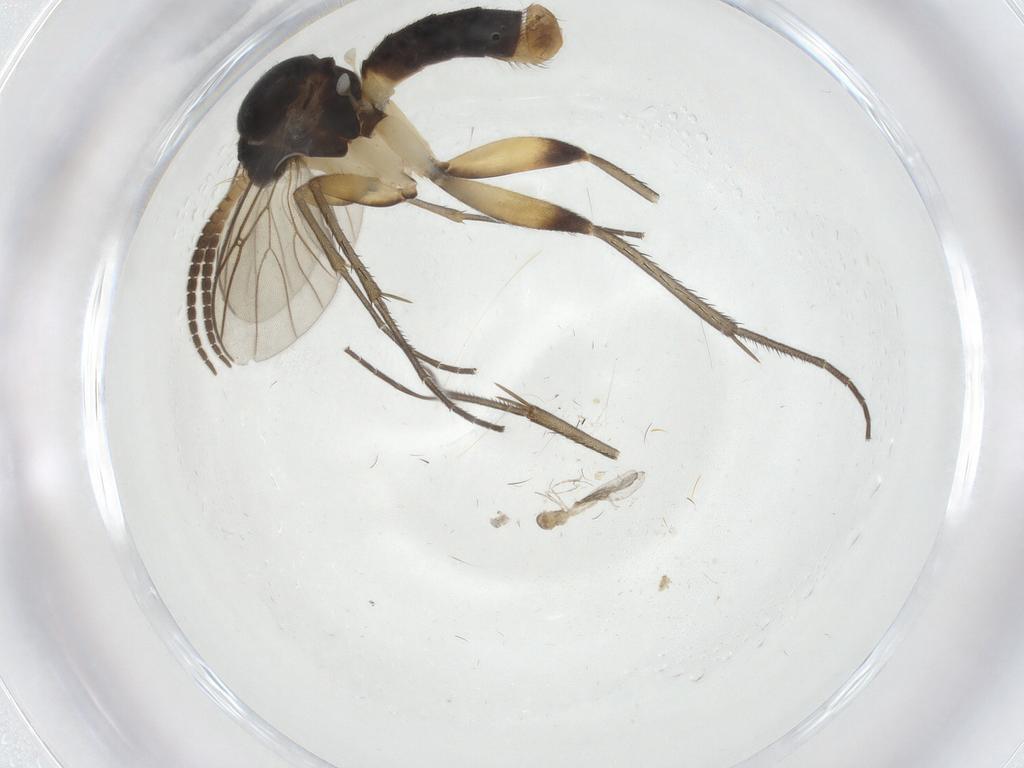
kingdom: Animalia
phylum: Arthropoda
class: Insecta
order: Diptera
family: Mycetophilidae
